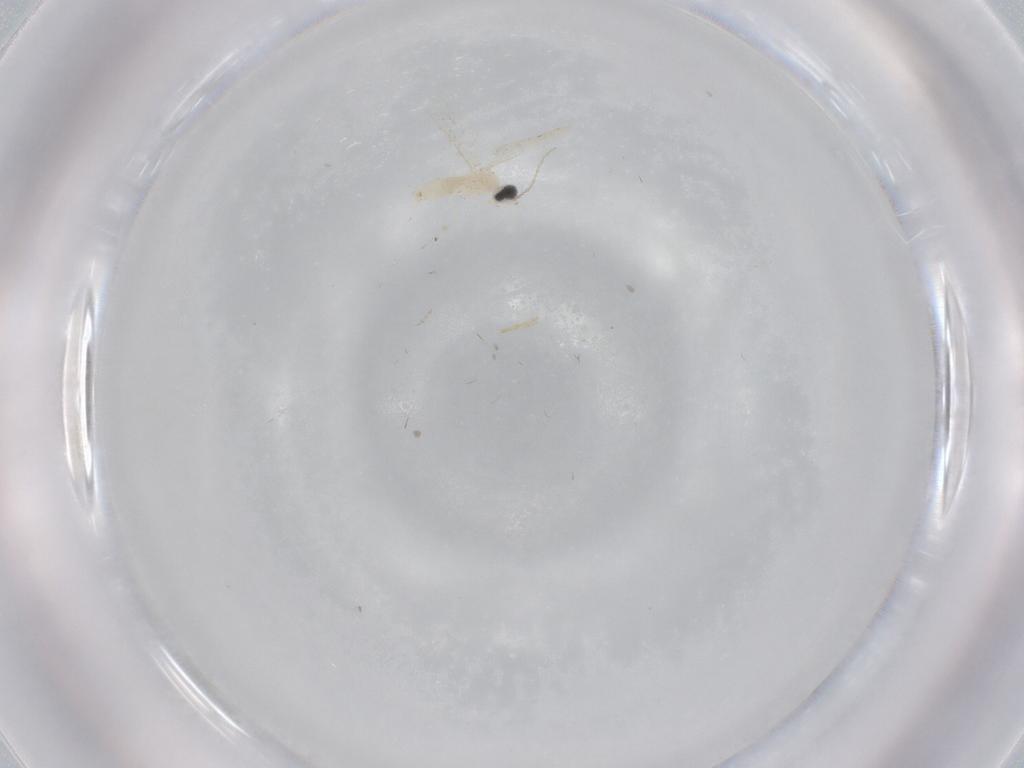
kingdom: Animalia
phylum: Arthropoda
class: Insecta
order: Diptera
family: Cecidomyiidae
